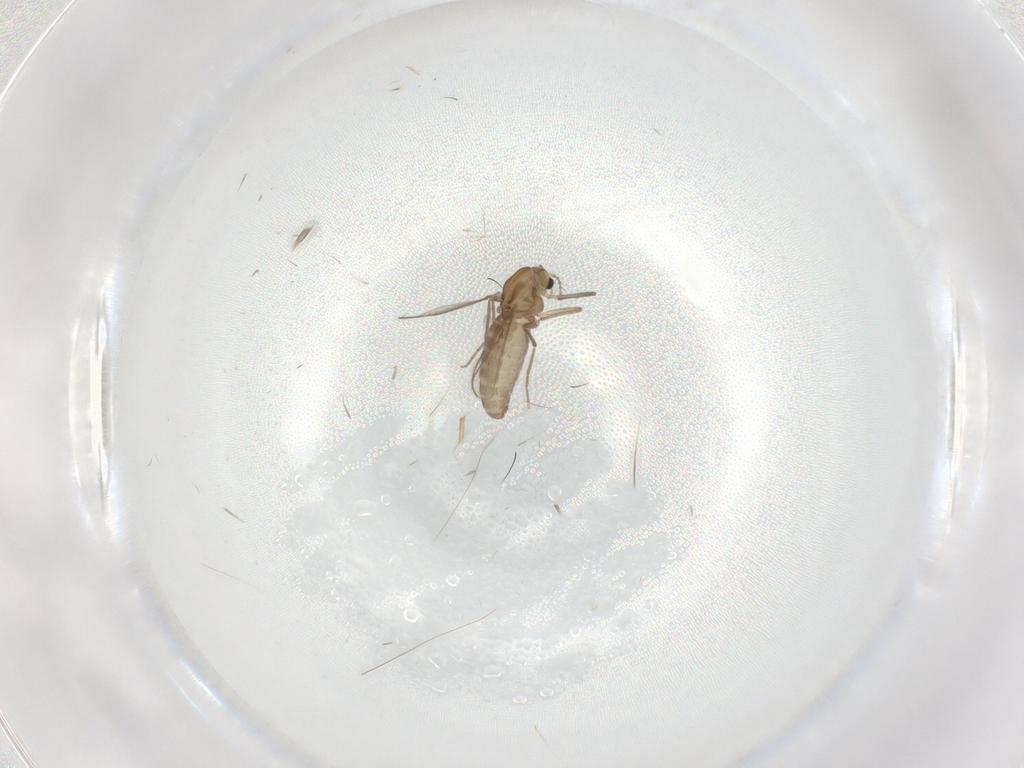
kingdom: Animalia
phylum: Arthropoda
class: Insecta
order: Diptera
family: Chironomidae
